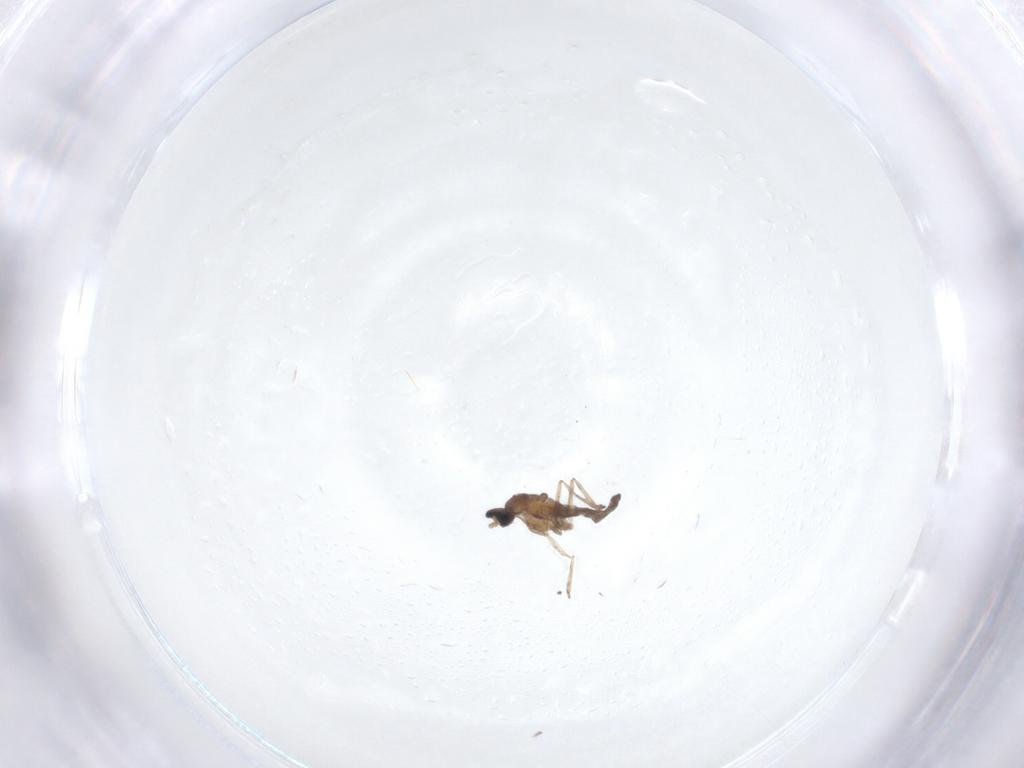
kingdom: Animalia
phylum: Arthropoda
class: Insecta
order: Diptera
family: Cecidomyiidae
